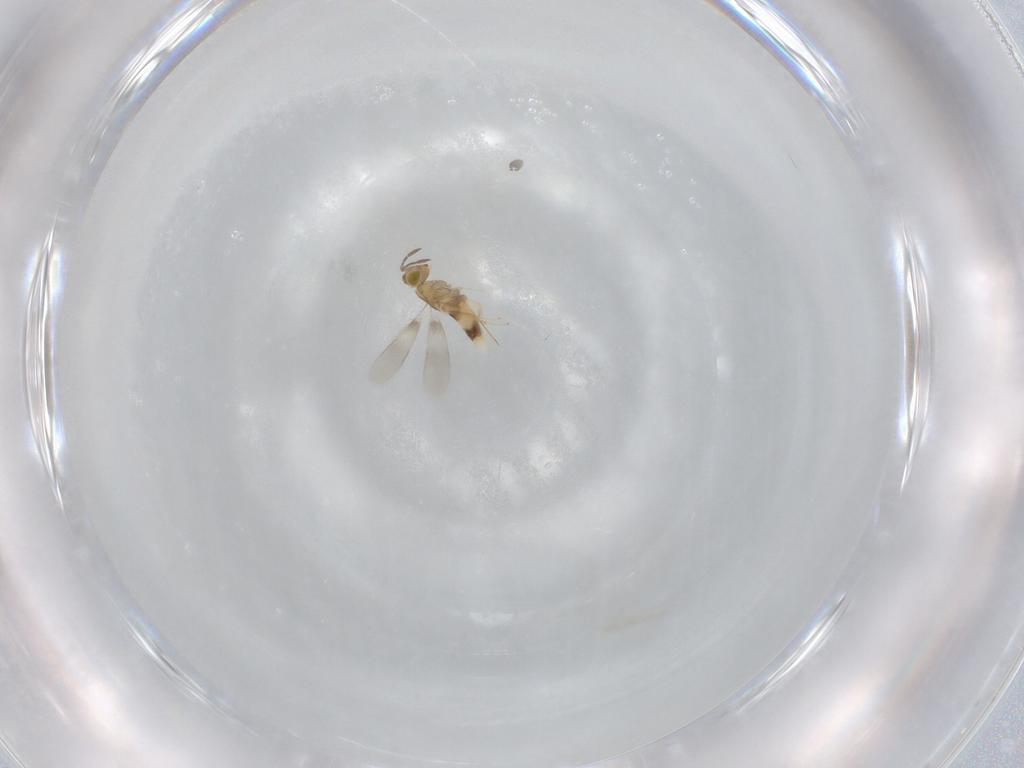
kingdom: Animalia
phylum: Arthropoda
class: Insecta
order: Hymenoptera
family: Aphelinidae
